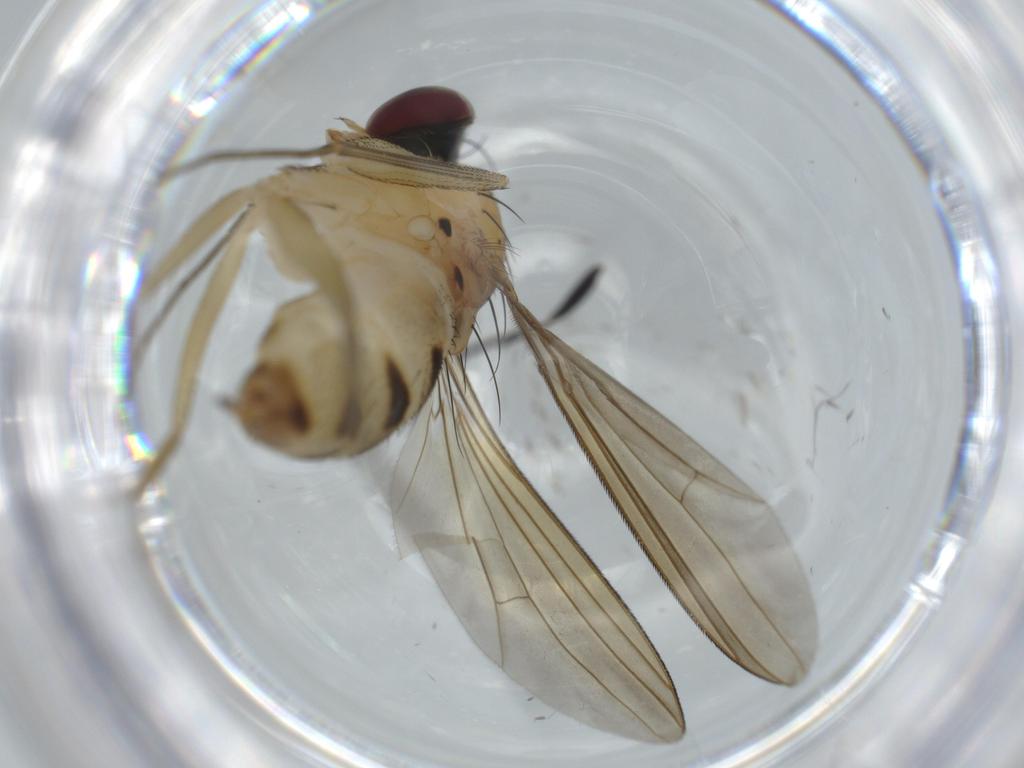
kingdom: Animalia
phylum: Arthropoda
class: Insecta
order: Diptera
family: Dolichopodidae
